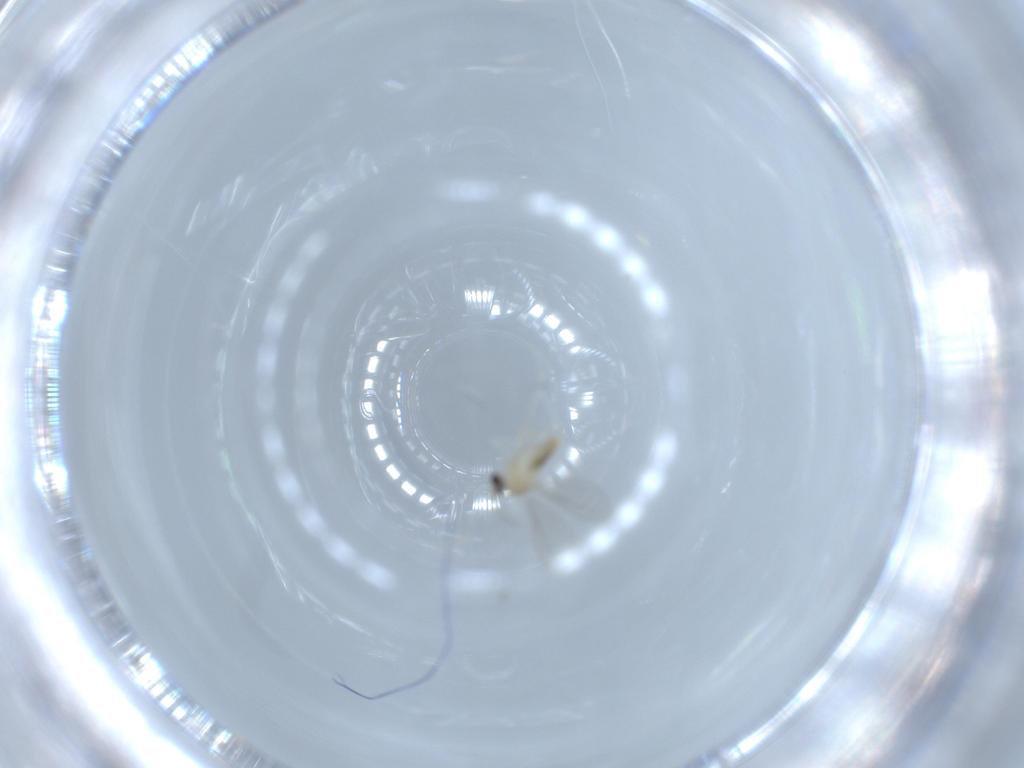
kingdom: Animalia
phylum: Arthropoda
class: Insecta
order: Diptera
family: Cecidomyiidae
